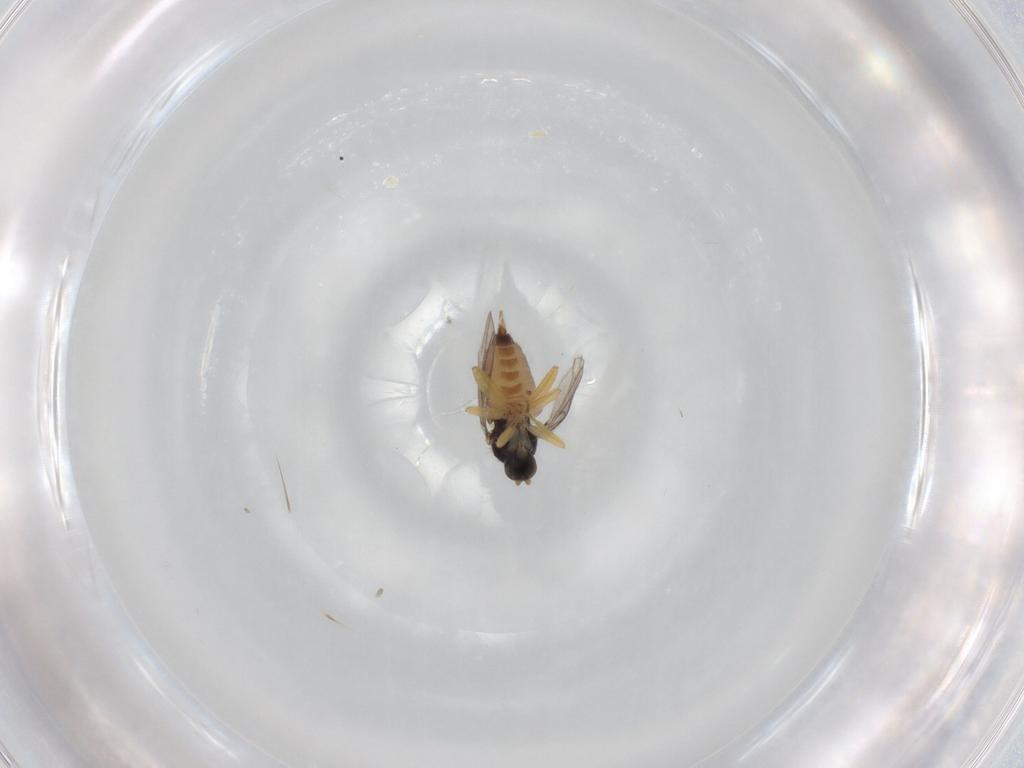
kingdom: Animalia
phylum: Arthropoda
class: Insecta
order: Diptera
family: Hybotidae
